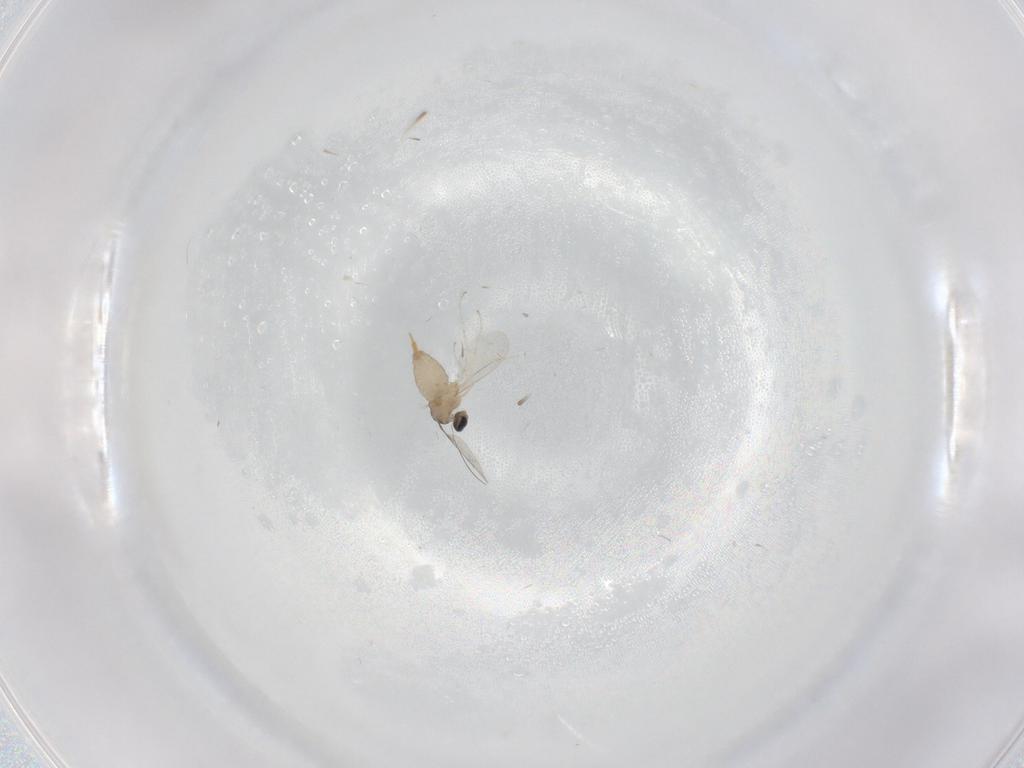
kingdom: Animalia
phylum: Arthropoda
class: Insecta
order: Diptera
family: Cecidomyiidae
